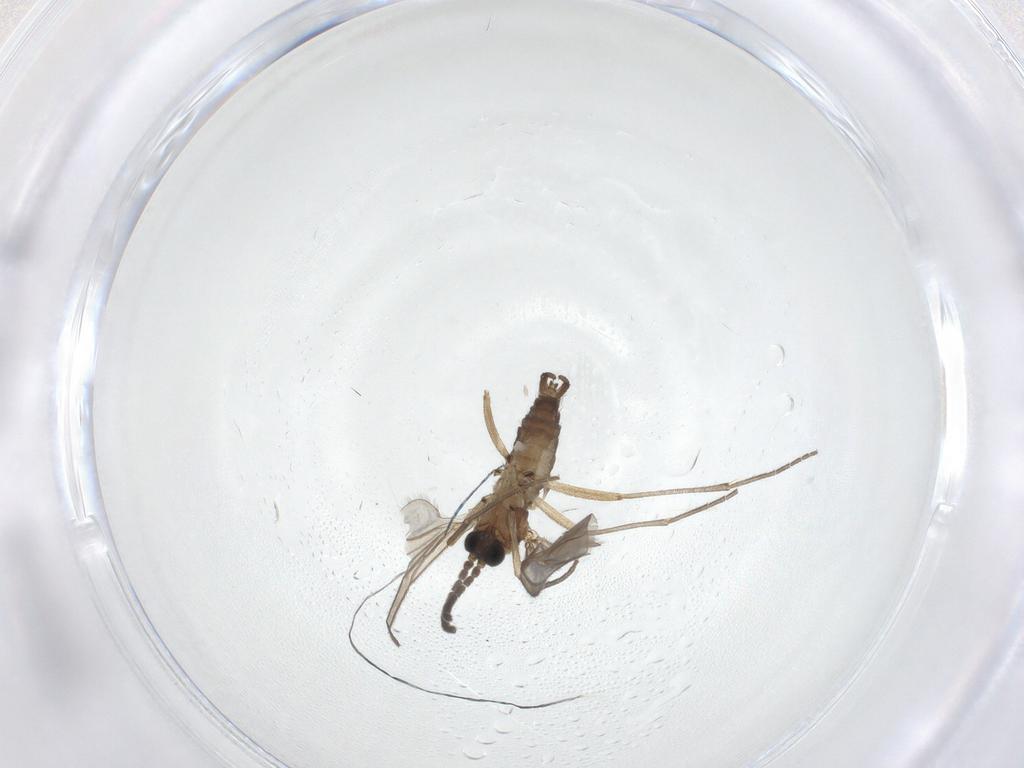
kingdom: Animalia
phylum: Arthropoda
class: Insecta
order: Diptera
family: Sciaridae
